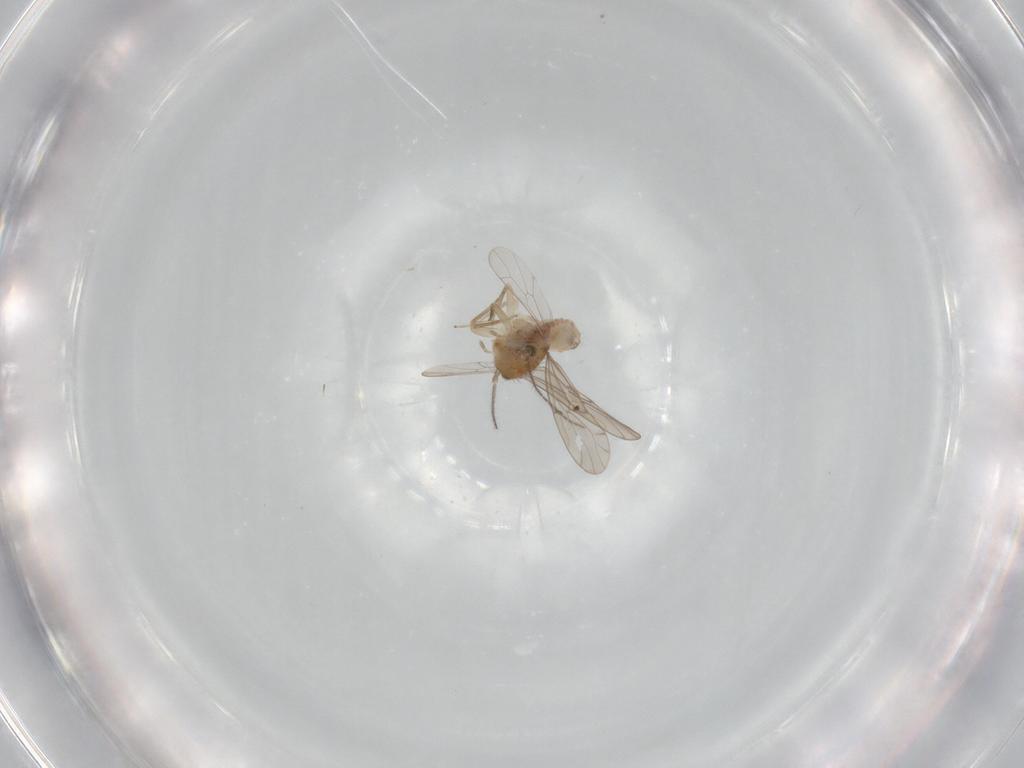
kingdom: Animalia
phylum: Arthropoda
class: Insecta
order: Psocodea
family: Ectopsocidae
